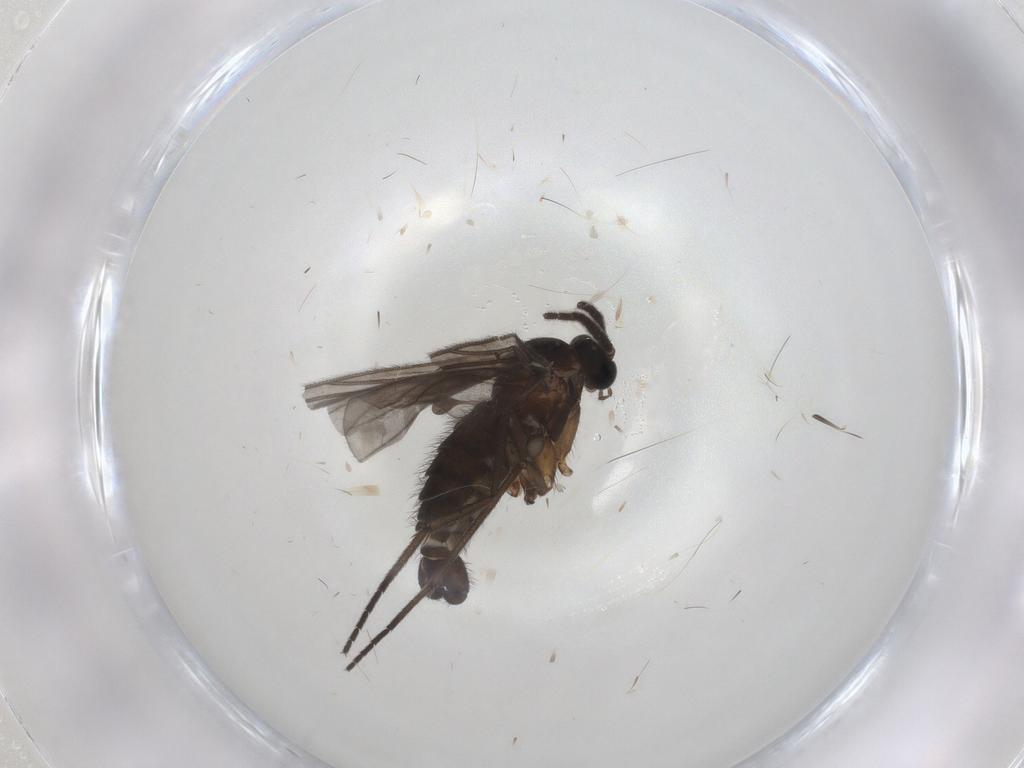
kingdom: Animalia
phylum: Arthropoda
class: Insecta
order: Diptera
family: Sciaridae
